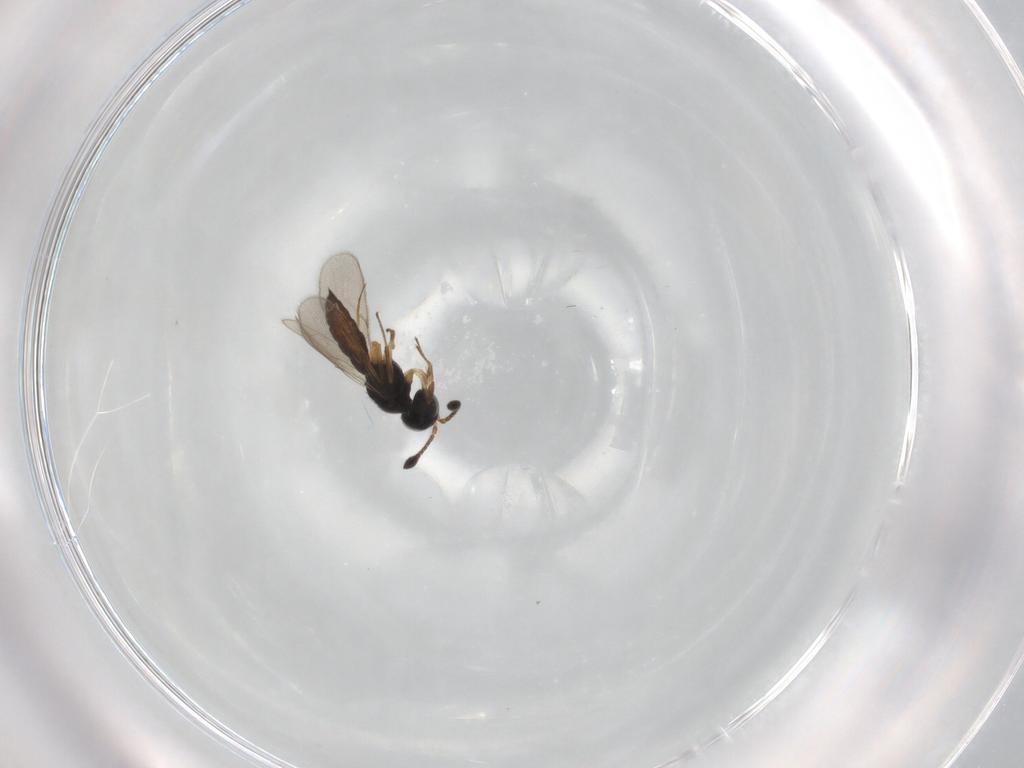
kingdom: Animalia
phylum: Arthropoda
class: Insecta
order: Hymenoptera
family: Scelionidae
